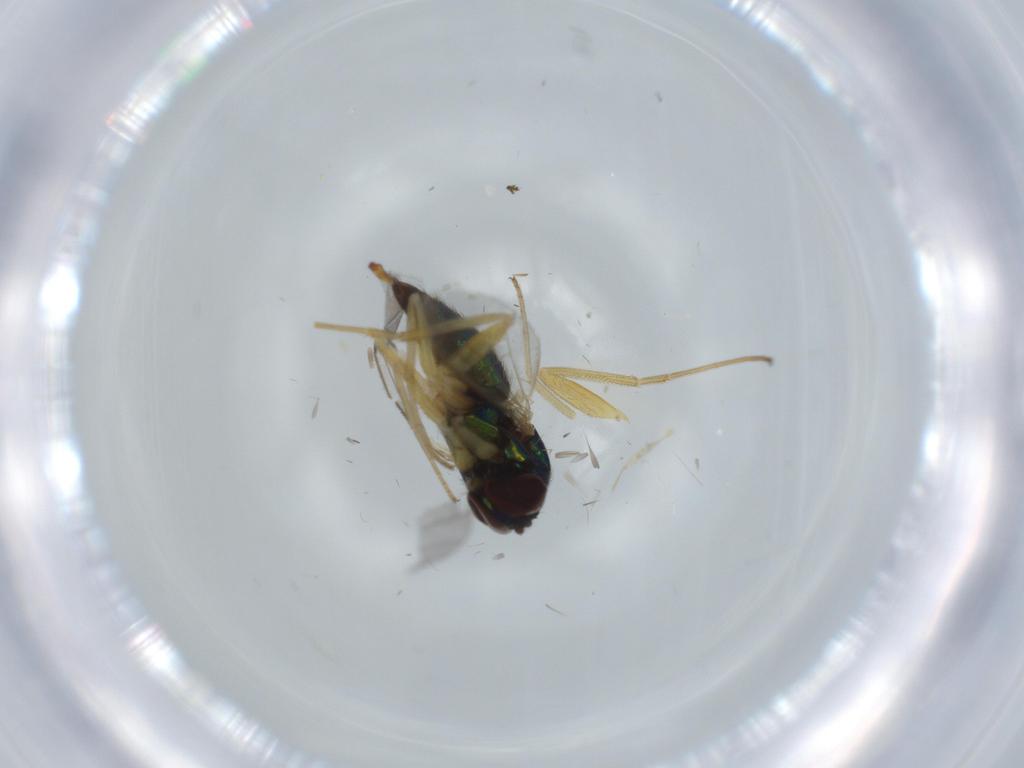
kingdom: Animalia
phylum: Arthropoda
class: Insecta
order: Diptera
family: Dolichopodidae
